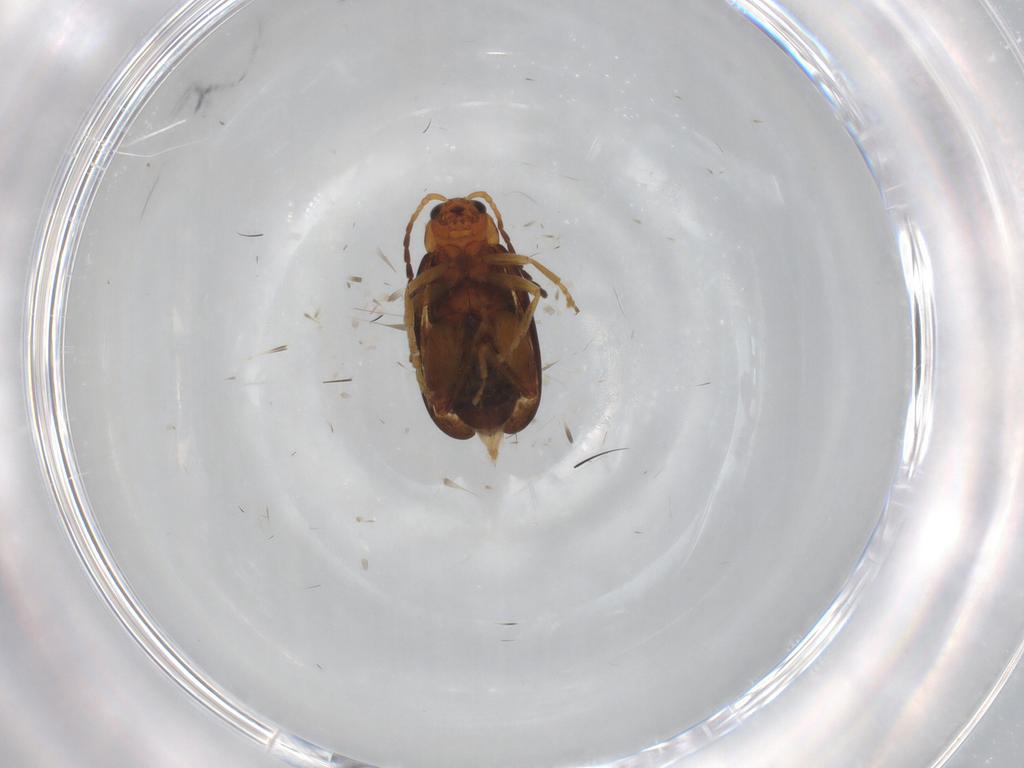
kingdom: Animalia
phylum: Arthropoda
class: Insecta
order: Coleoptera
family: Chrysomelidae
